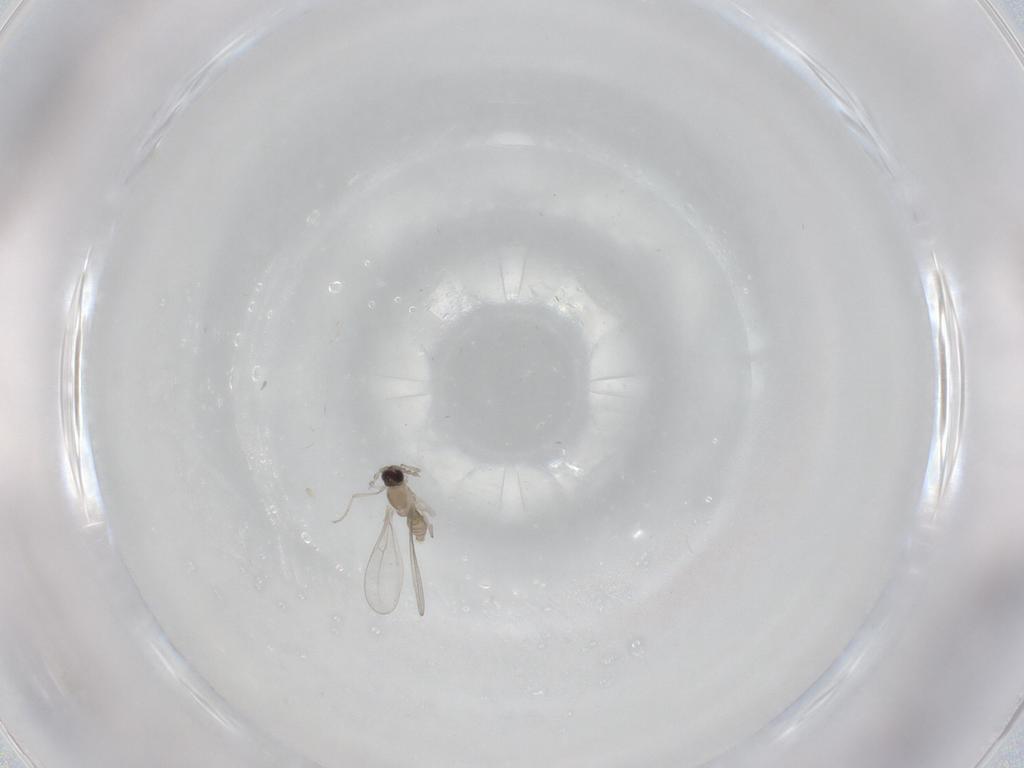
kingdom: Animalia
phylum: Arthropoda
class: Insecta
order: Diptera
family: Cecidomyiidae
